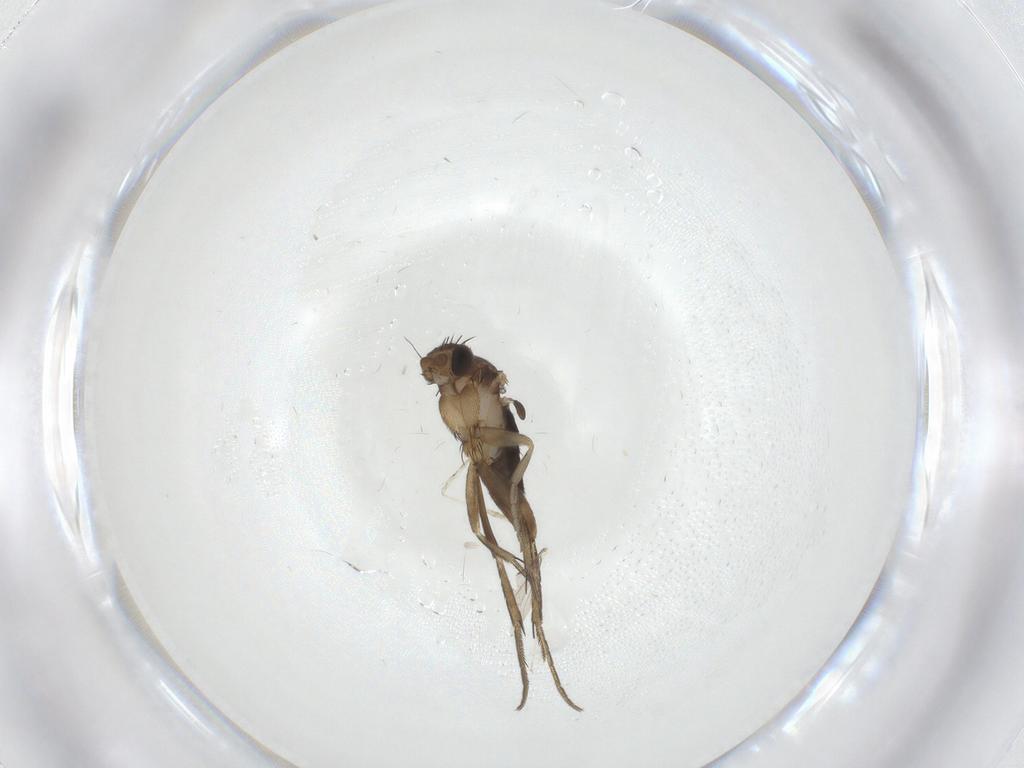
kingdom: Animalia
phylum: Arthropoda
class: Insecta
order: Diptera
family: Phoridae
